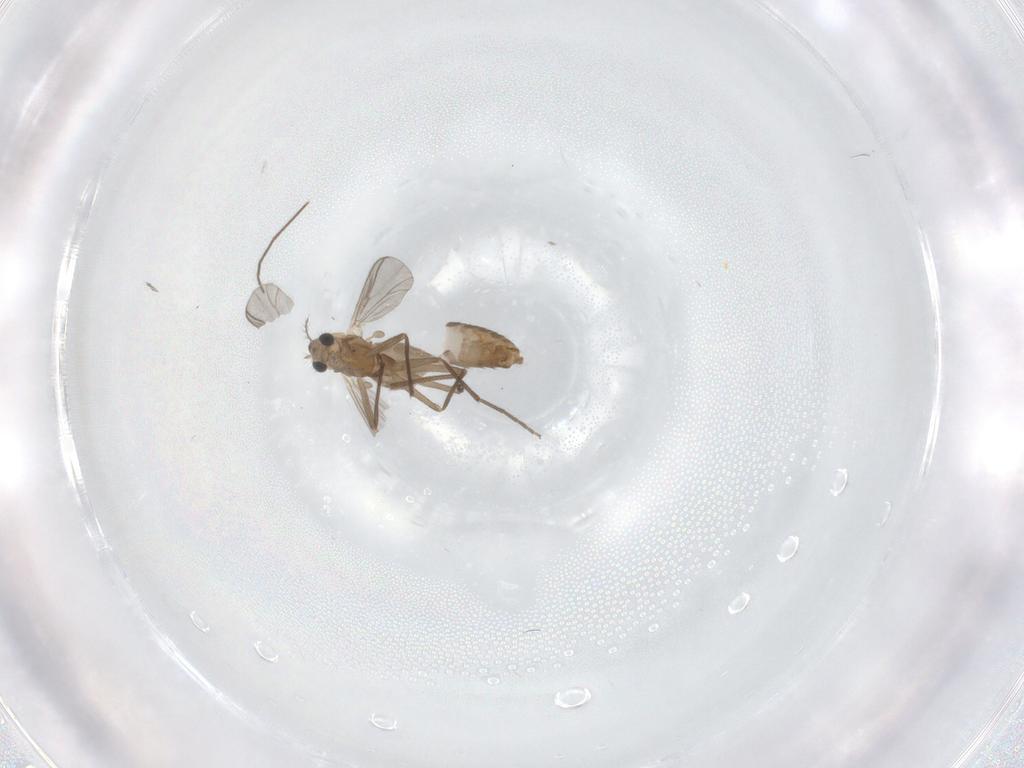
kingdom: Animalia
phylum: Arthropoda
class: Insecta
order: Diptera
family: Chironomidae
